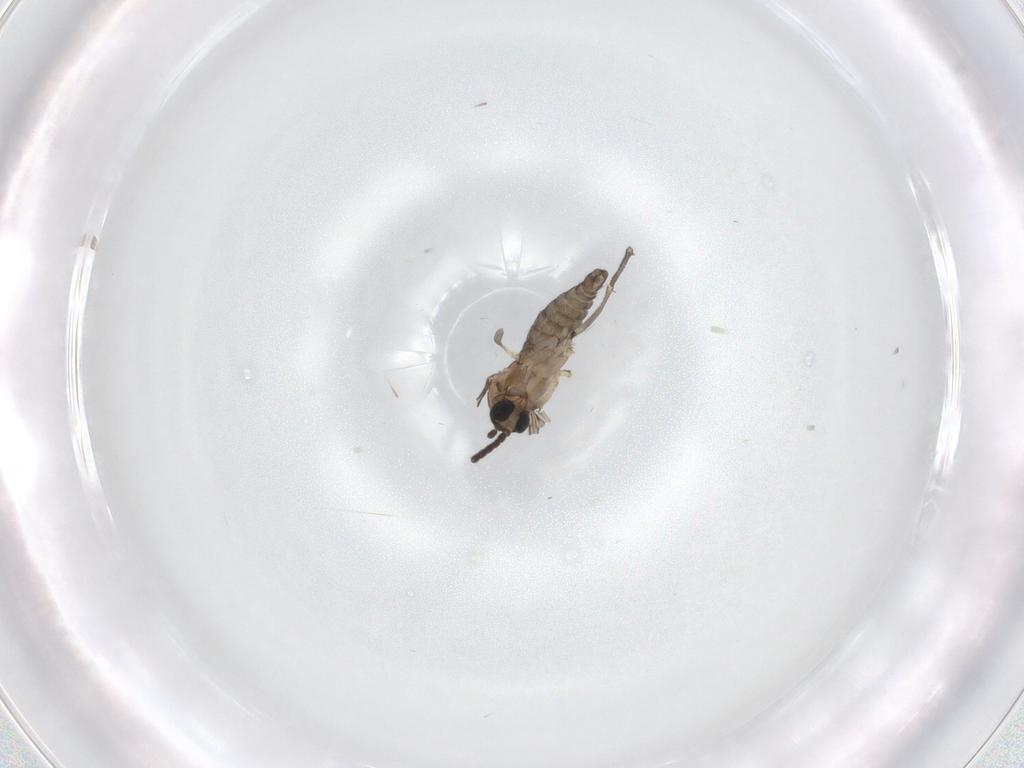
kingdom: Animalia
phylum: Arthropoda
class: Insecta
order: Diptera
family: Sciaridae
